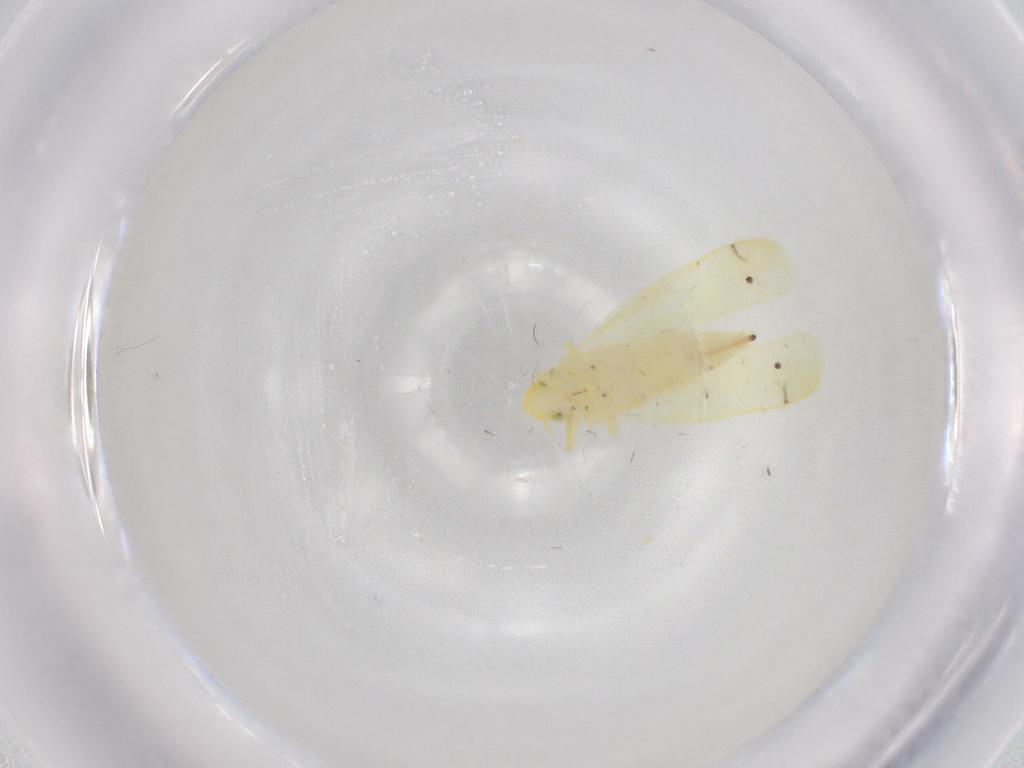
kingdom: Animalia
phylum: Arthropoda
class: Insecta
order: Hemiptera
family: Cicadellidae
